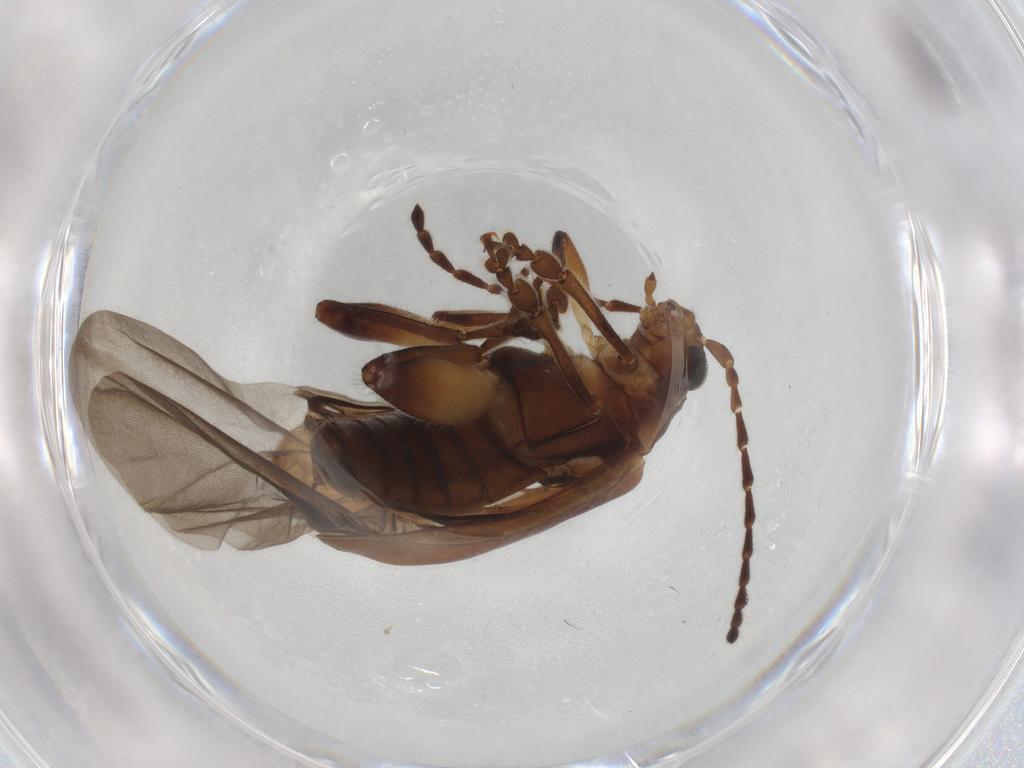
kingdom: Animalia
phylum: Arthropoda
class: Insecta
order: Coleoptera
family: Chrysomelidae
